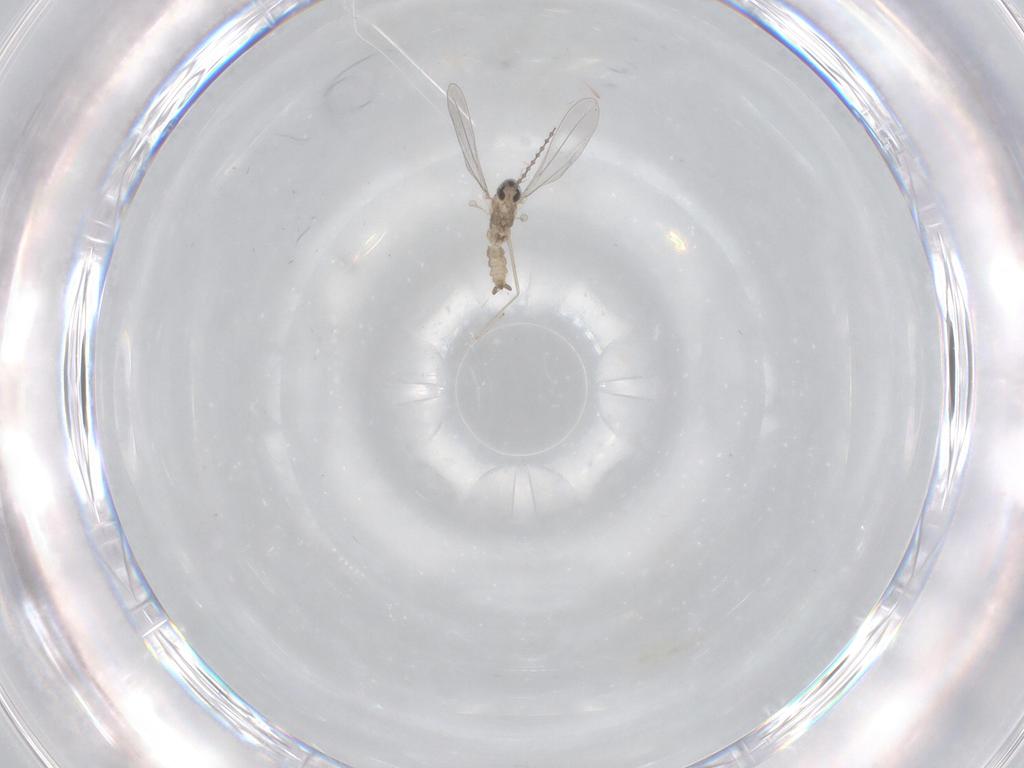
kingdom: Animalia
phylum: Arthropoda
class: Insecta
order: Diptera
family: Cecidomyiidae
